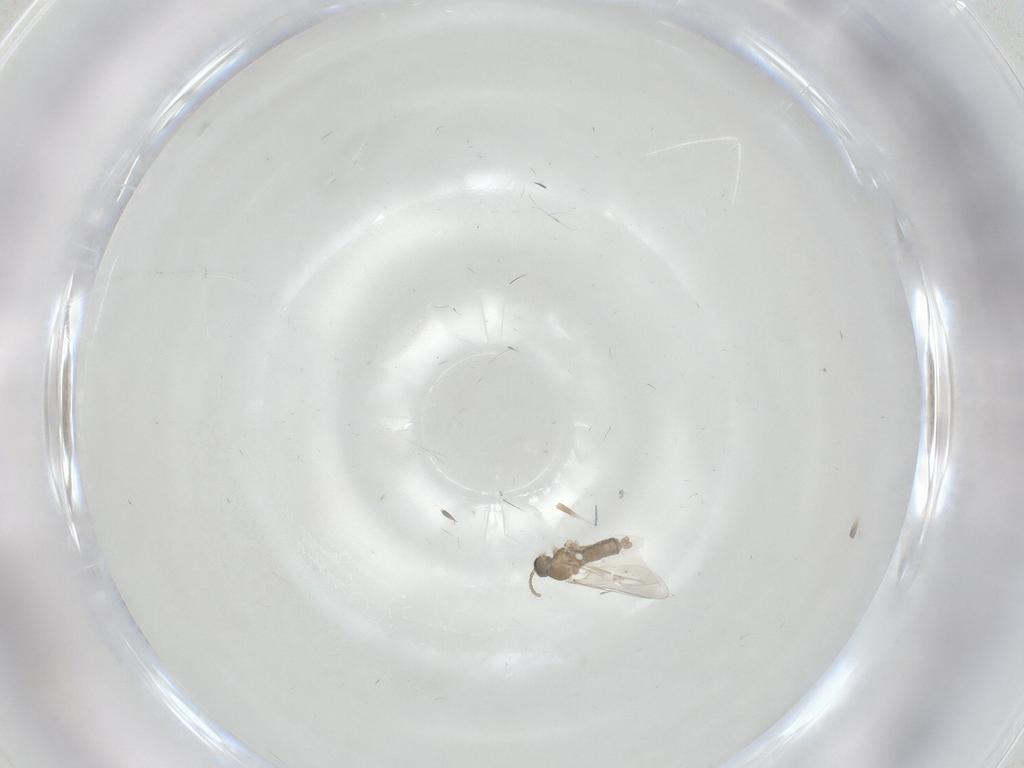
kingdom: Animalia
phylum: Arthropoda
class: Insecta
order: Diptera
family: Cecidomyiidae
